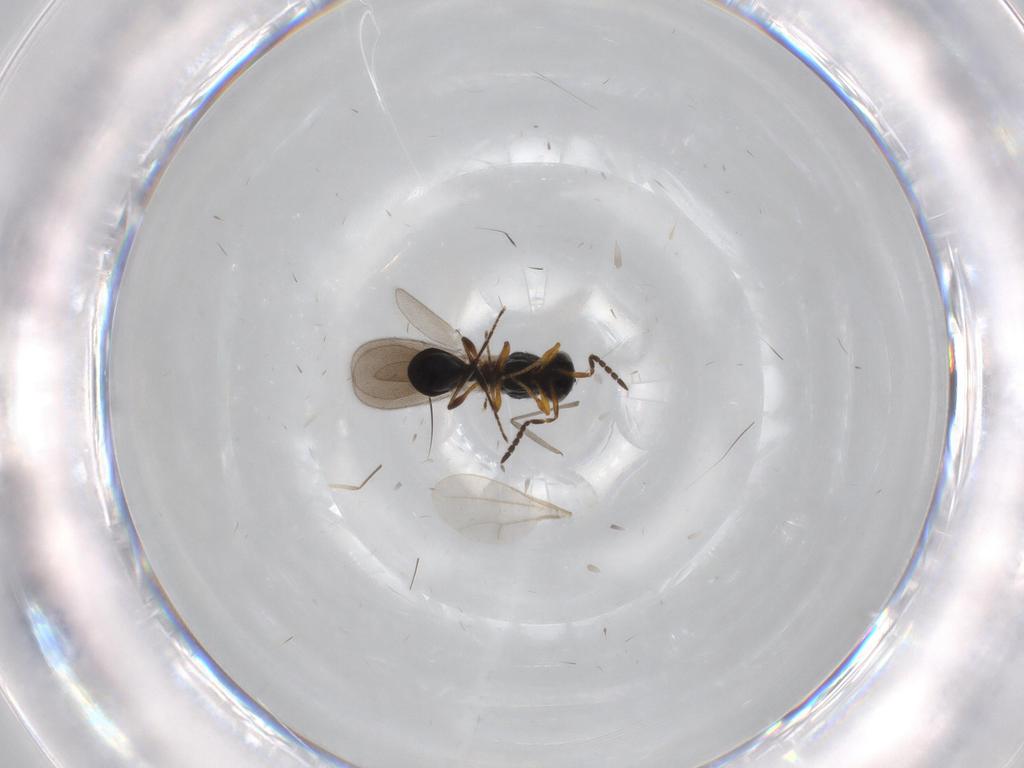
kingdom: Animalia
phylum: Arthropoda
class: Insecta
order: Hymenoptera
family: Platygastridae
